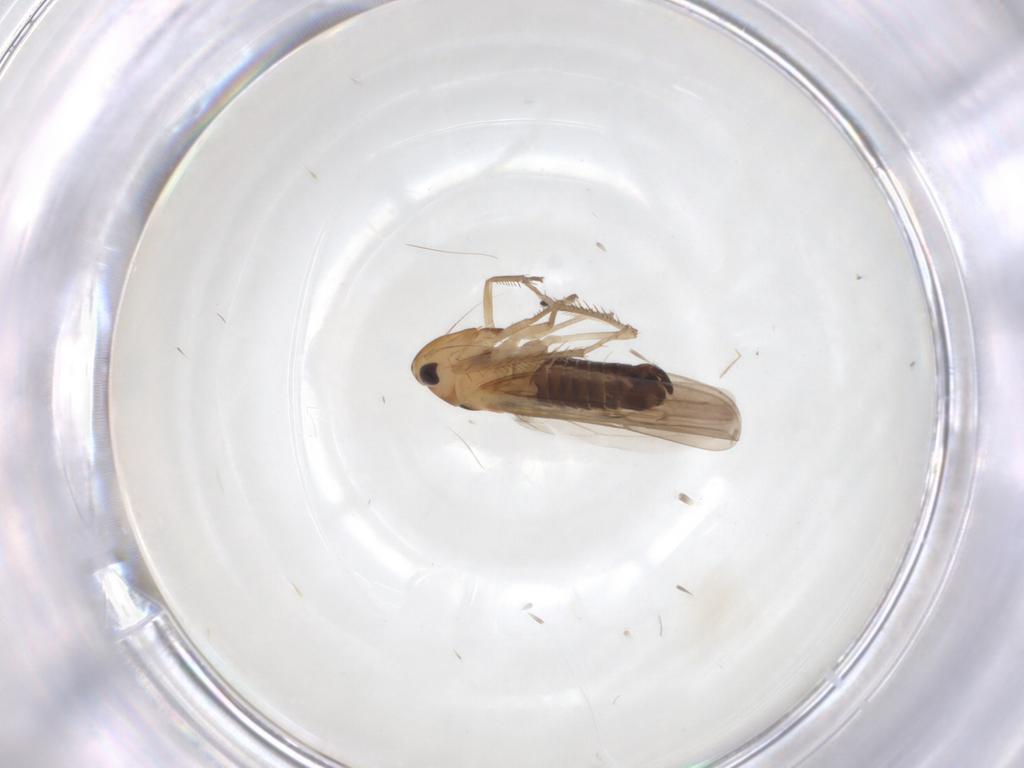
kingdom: Animalia
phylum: Arthropoda
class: Insecta
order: Hemiptera
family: Cicadellidae
